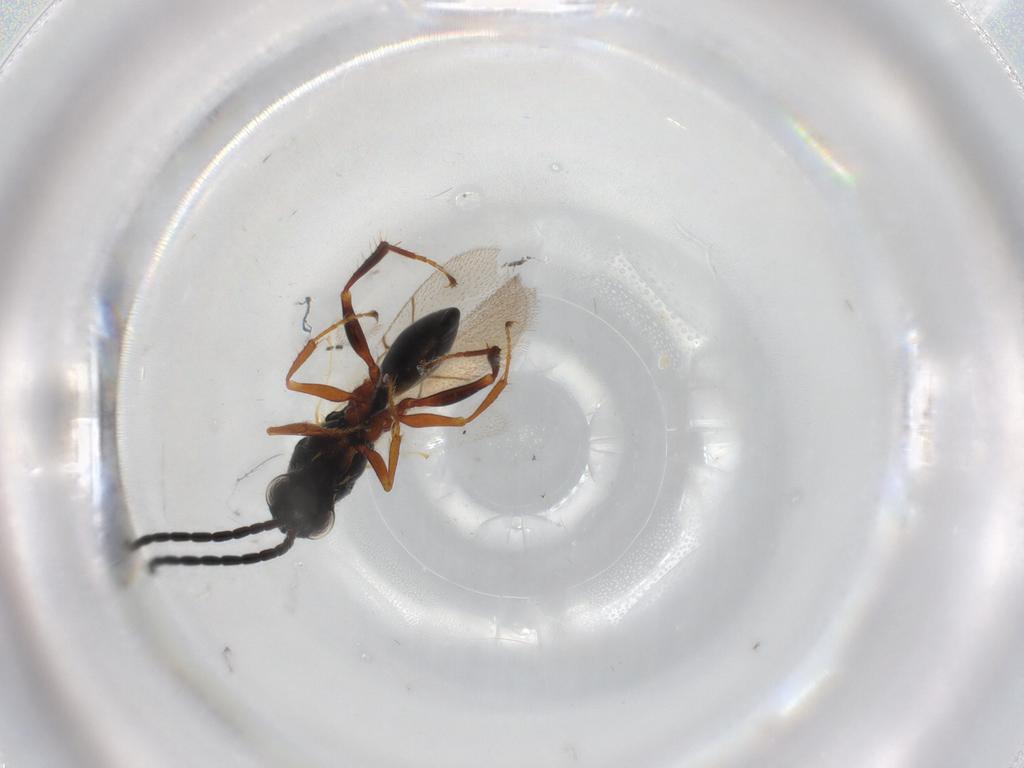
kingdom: Animalia
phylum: Arthropoda
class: Insecta
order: Hymenoptera
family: Figitidae
